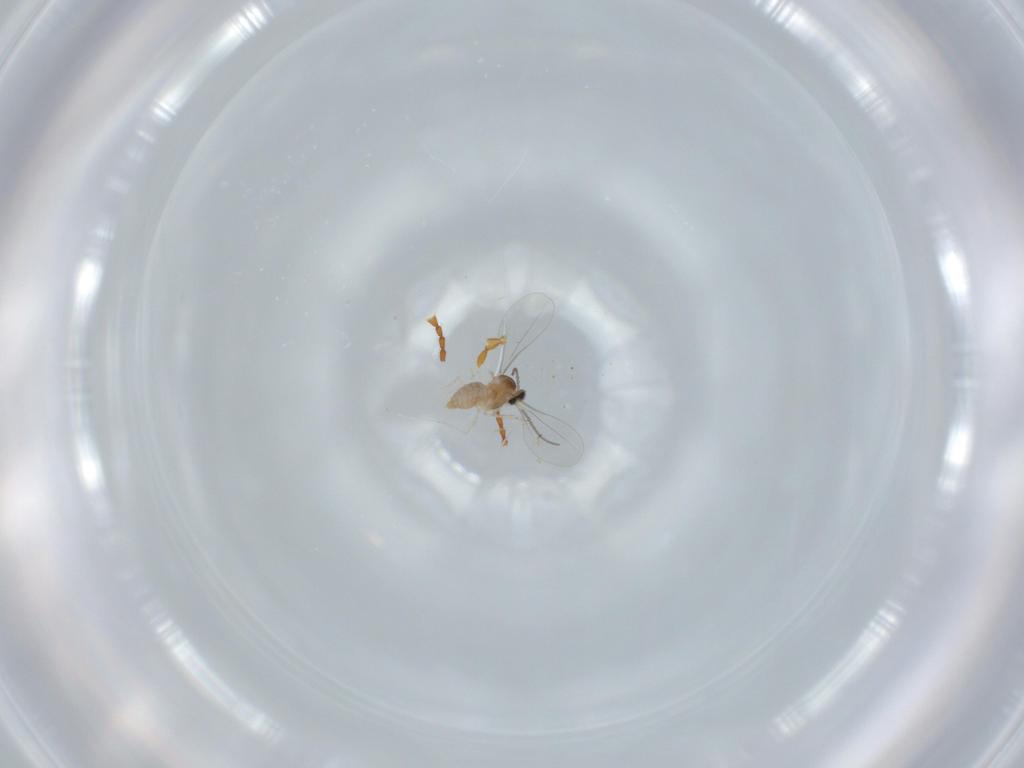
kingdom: Animalia
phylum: Arthropoda
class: Insecta
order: Diptera
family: Cecidomyiidae
